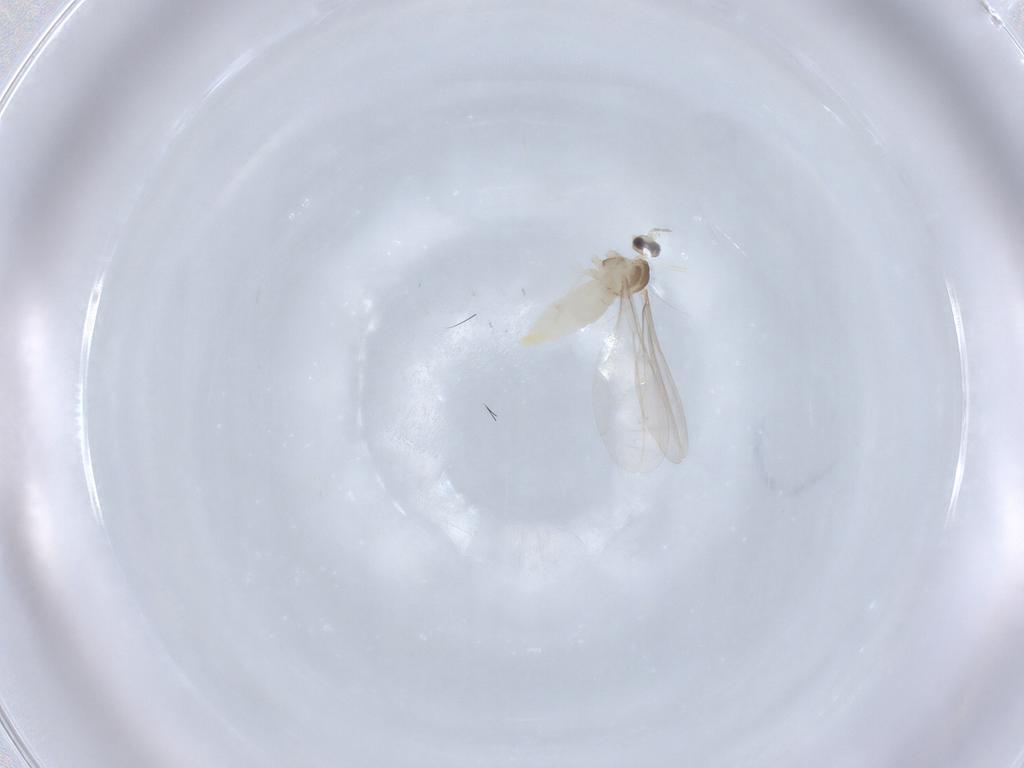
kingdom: Animalia
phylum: Arthropoda
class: Insecta
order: Diptera
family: Cecidomyiidae
